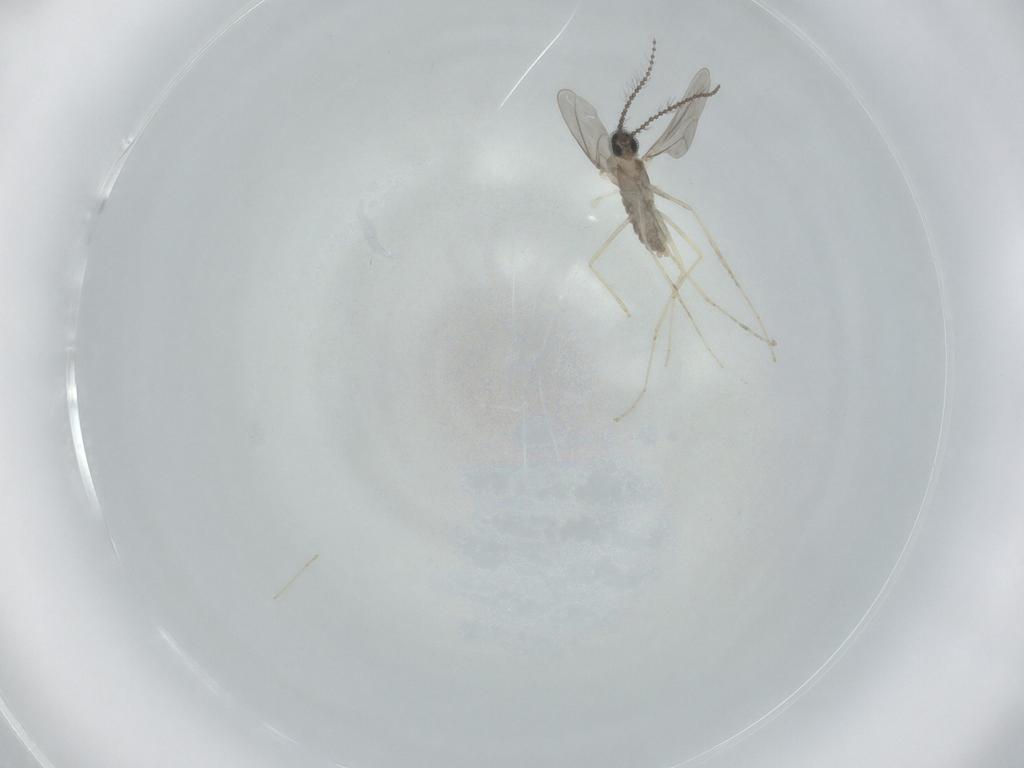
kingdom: Animalia
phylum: Arthropoda
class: Insecta
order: Diptera
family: Cecidomyiidae
